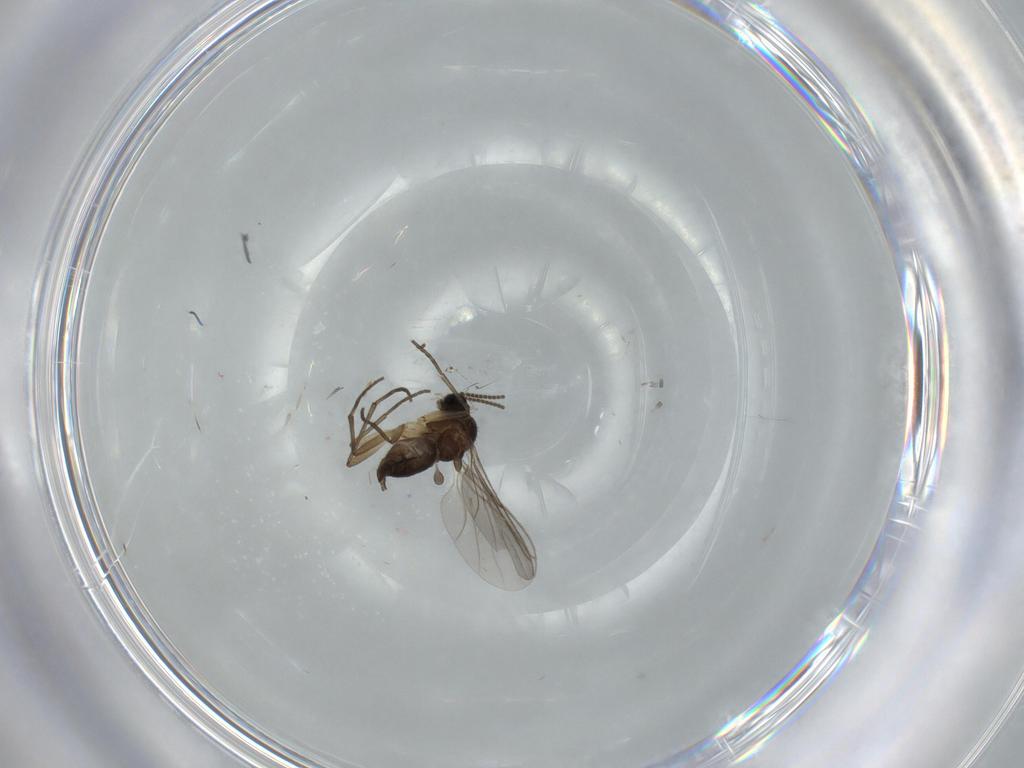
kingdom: Animalia
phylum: Arthropoda
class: Insecta
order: Diptera
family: Sciaridae
